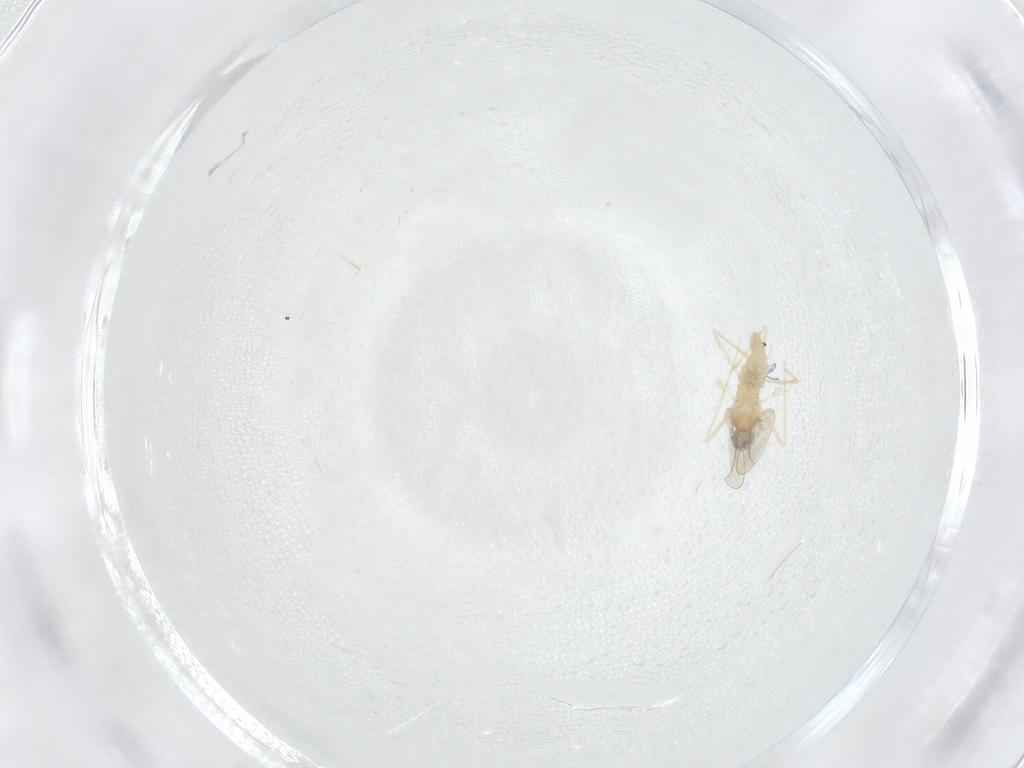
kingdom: Animalia
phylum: Arthropoda
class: Insecta
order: Diptera
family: Cecidomyiidae
